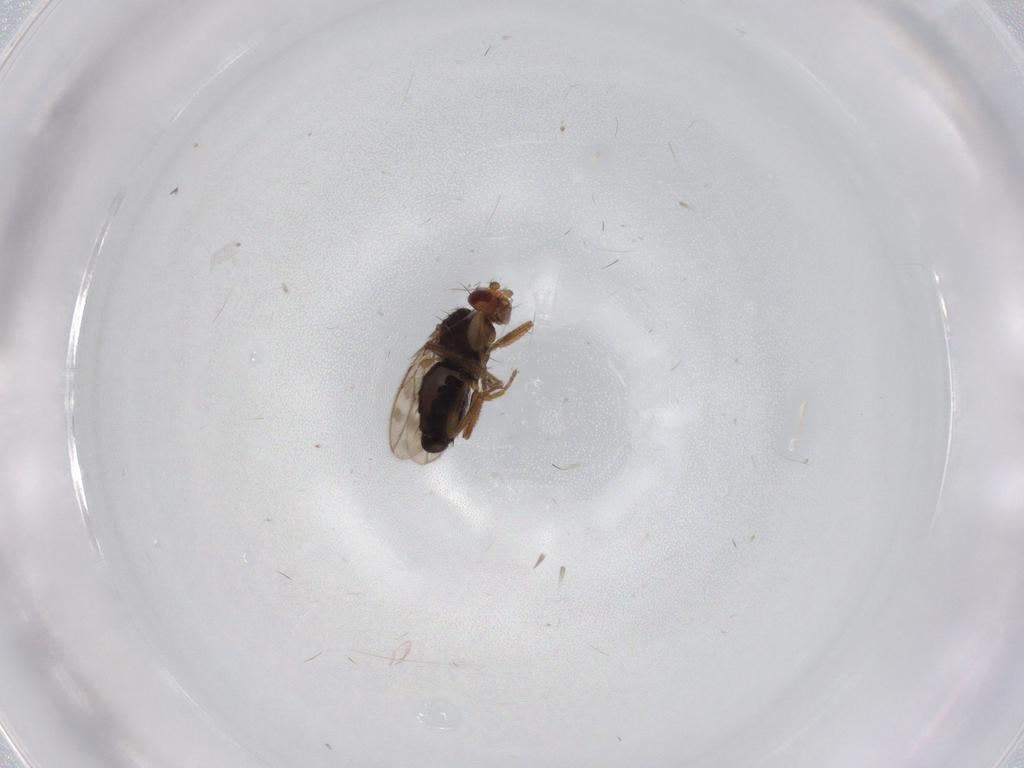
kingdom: Animalia
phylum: Arthropoda
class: Insecta
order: Diptera
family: Sphaeroceridae
